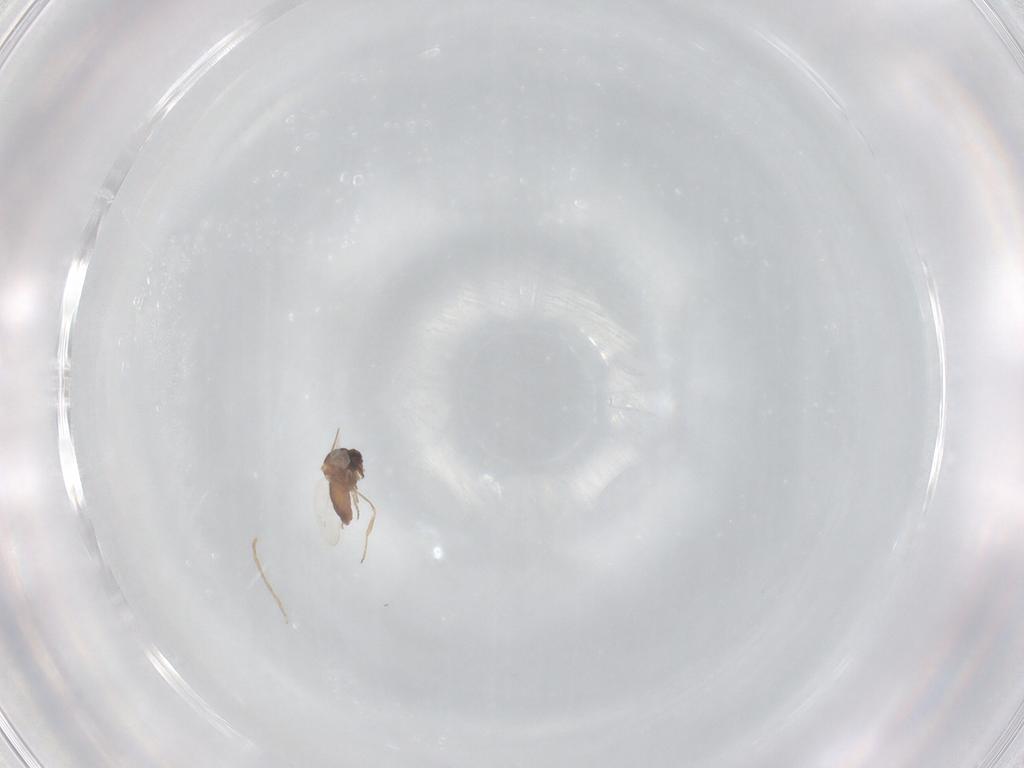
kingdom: Animalia
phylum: Arthropoda
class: Insecta
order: Diptera
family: Ceratopogonidae
